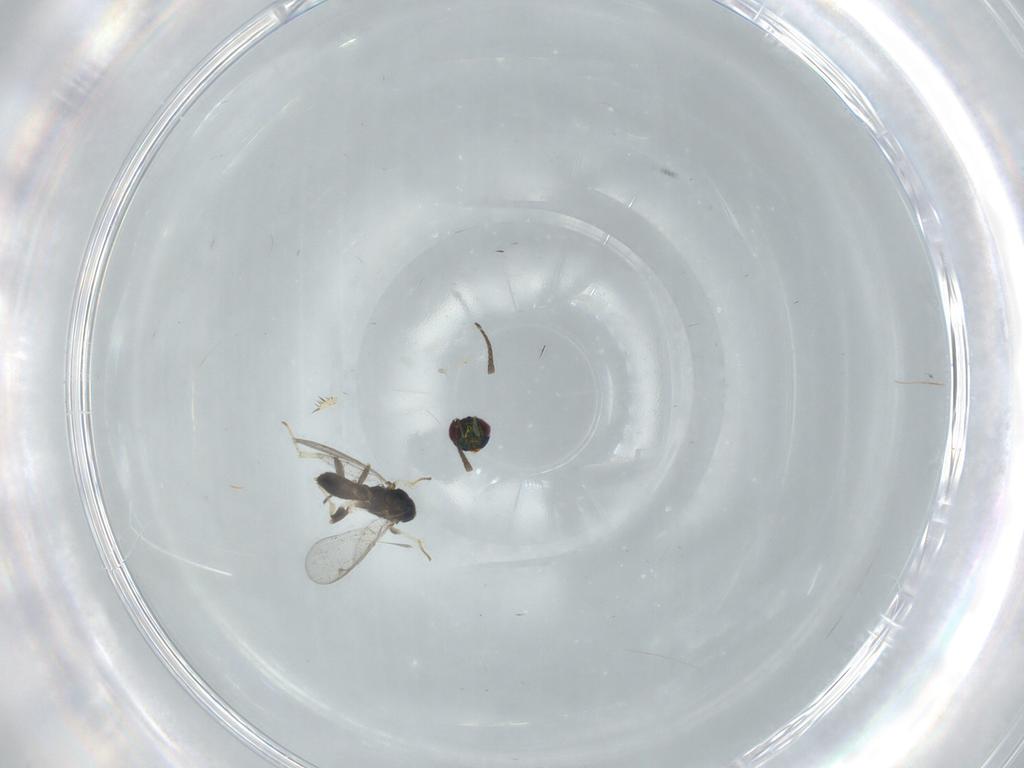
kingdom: Animalia
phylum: Arthropoda
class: Insecta
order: Hymenoptera
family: Eupelmidae
